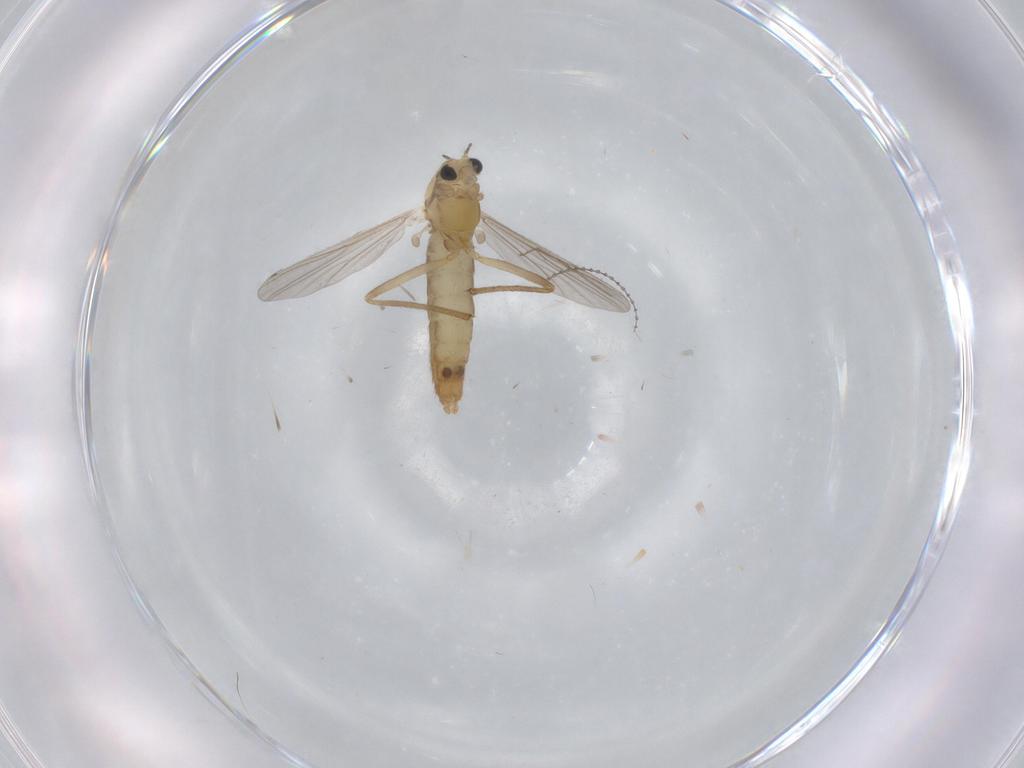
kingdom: Animalia
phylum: Arthropoda
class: Insecta
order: Diptera
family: Chironomidae
